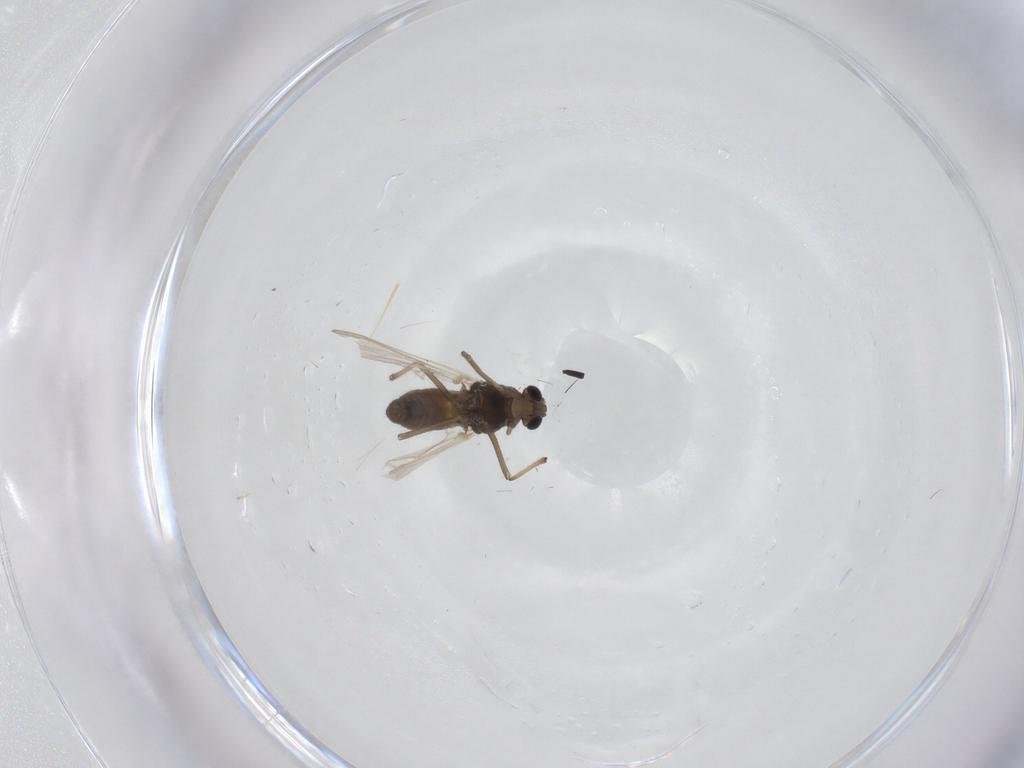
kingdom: Animalia
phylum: Arthropoda
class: Insecta
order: Diptera
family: Chironomidae
